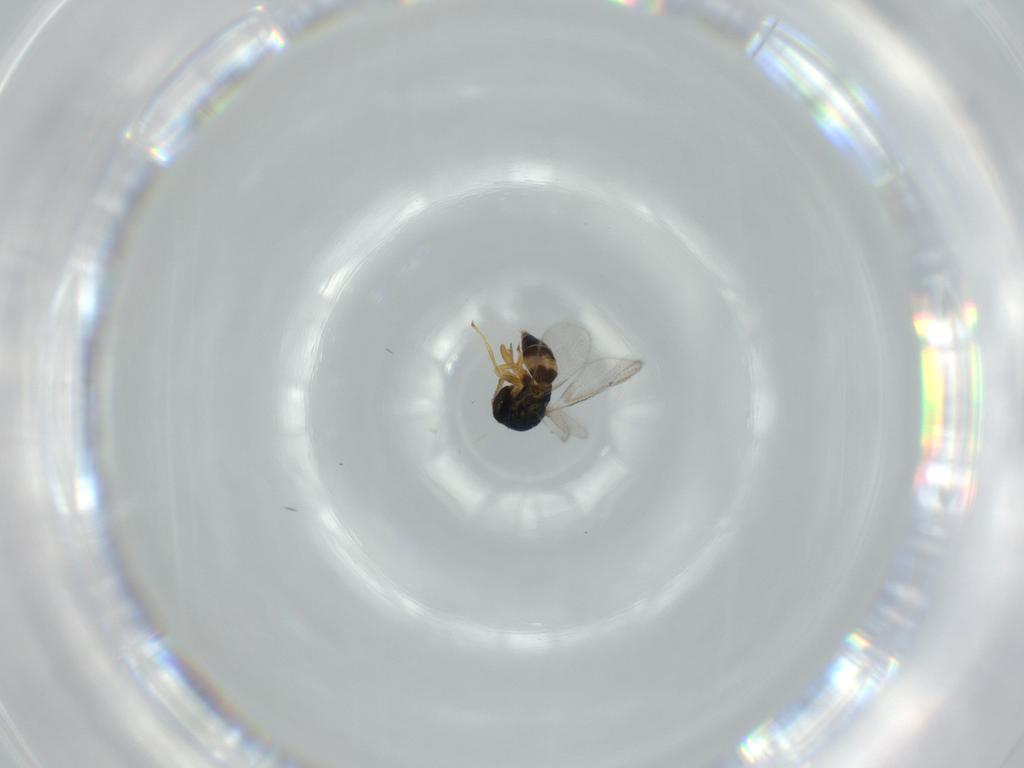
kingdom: Animalia
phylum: Arthropoda
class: Insecta
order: Hymenoptera
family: Torymidae
